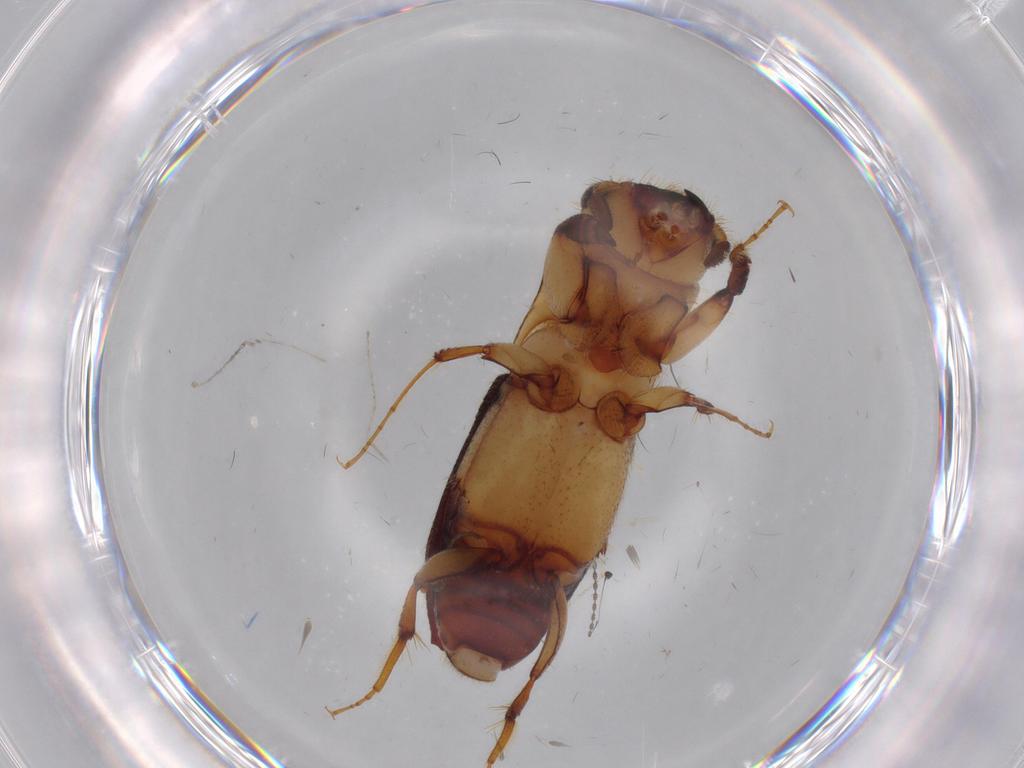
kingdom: Animalia
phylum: Arthropoda
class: Insecta
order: Coleoptera
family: Curculionidae
